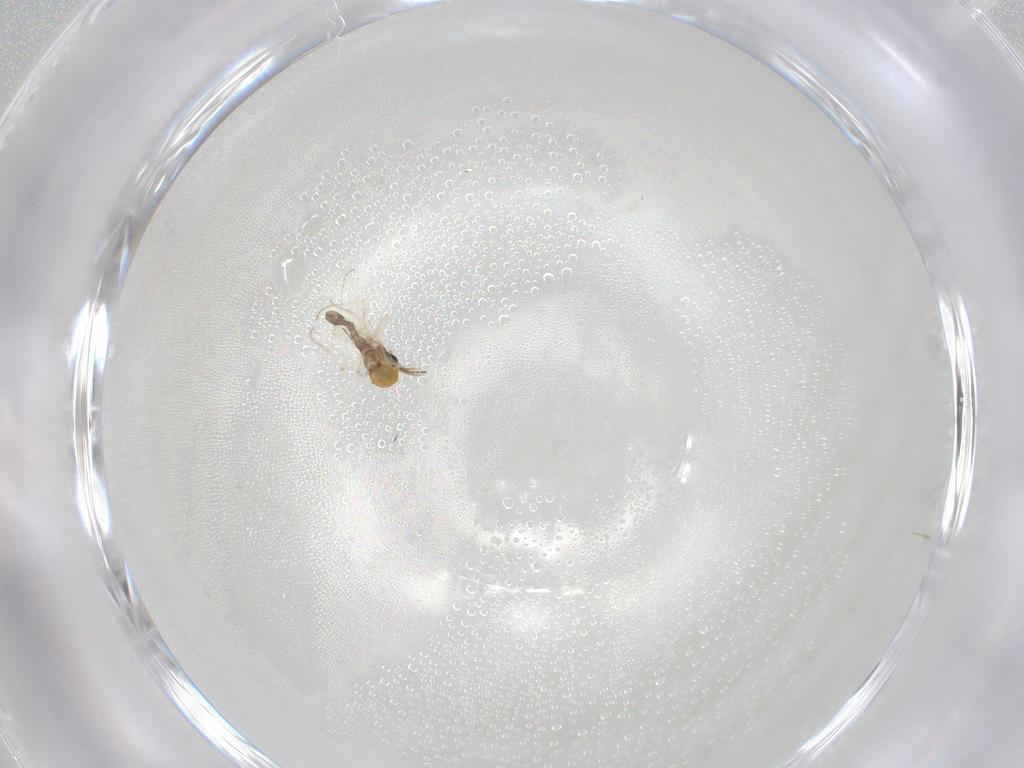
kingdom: Animalia
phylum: Arthropoda
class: Insecta
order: Diptera
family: Ceratopogonidae
